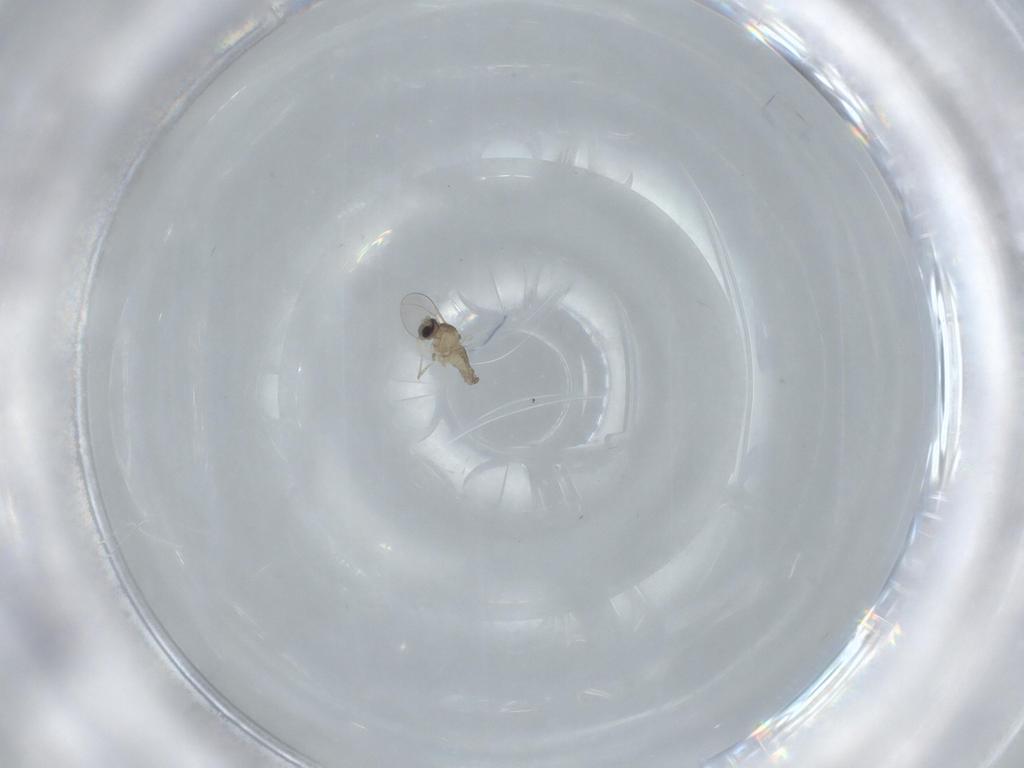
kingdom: Animalia
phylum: Arthropoda
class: Insecta
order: Diptera
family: Cecidomyiidae
